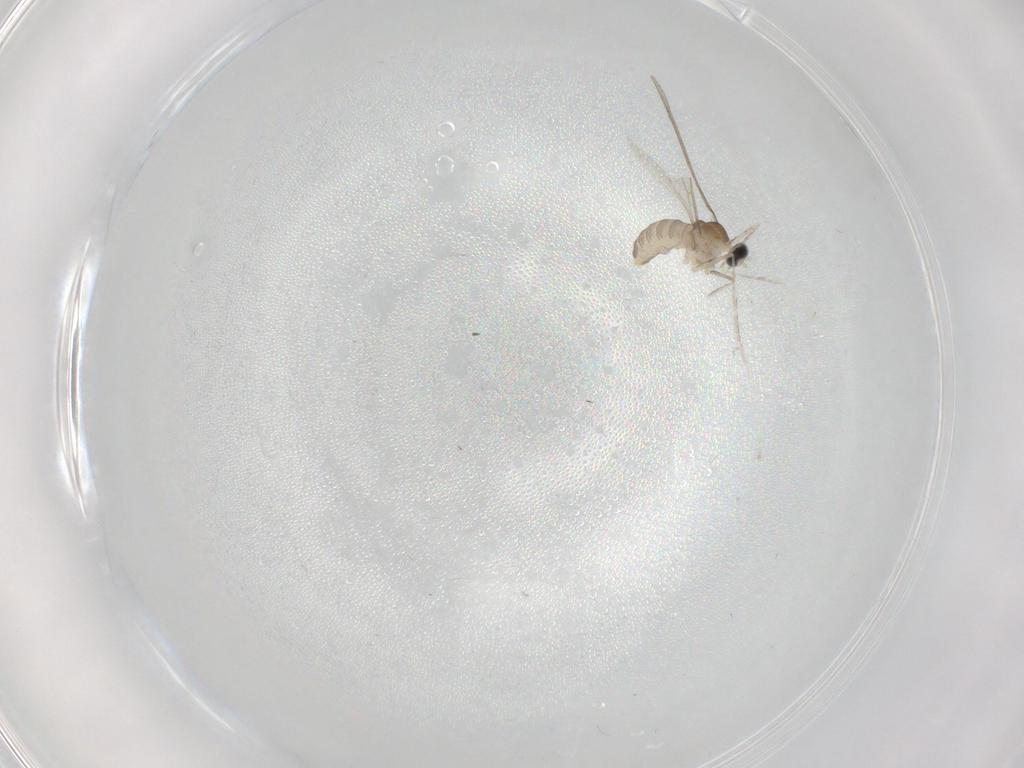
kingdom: Animalia
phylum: Arthropoda
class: Insecta
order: Diptera
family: Cecidomyiidae
